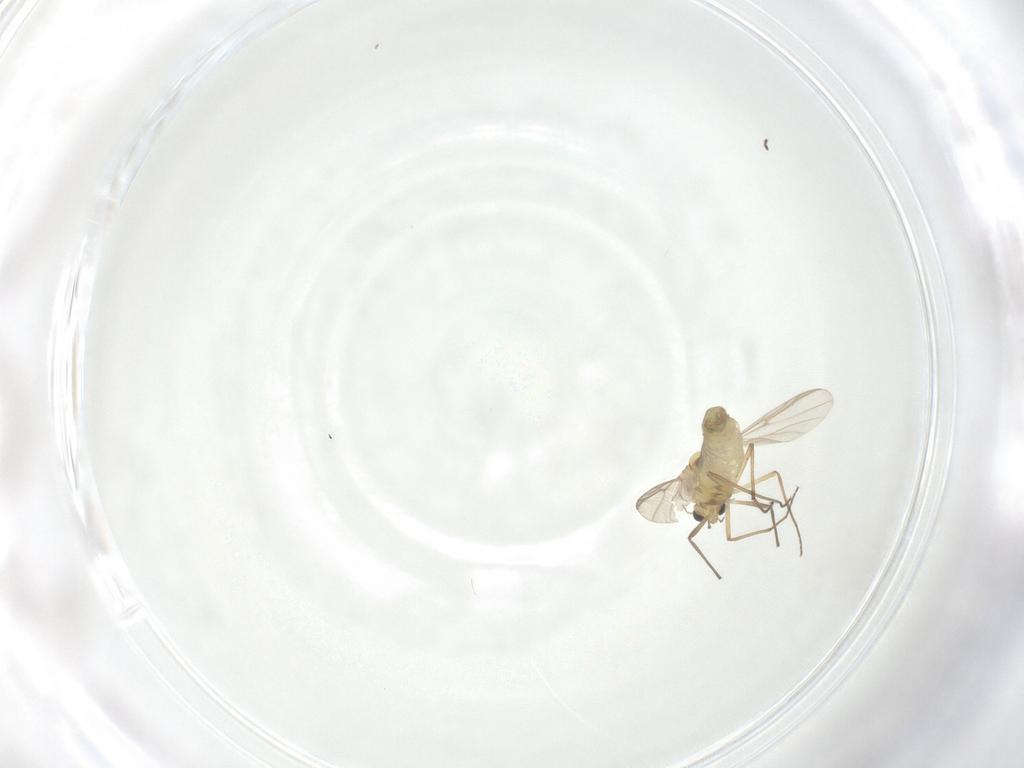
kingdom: Animalia
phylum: Arthropoda
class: Insecta
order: Diptera
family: Chironomidae
